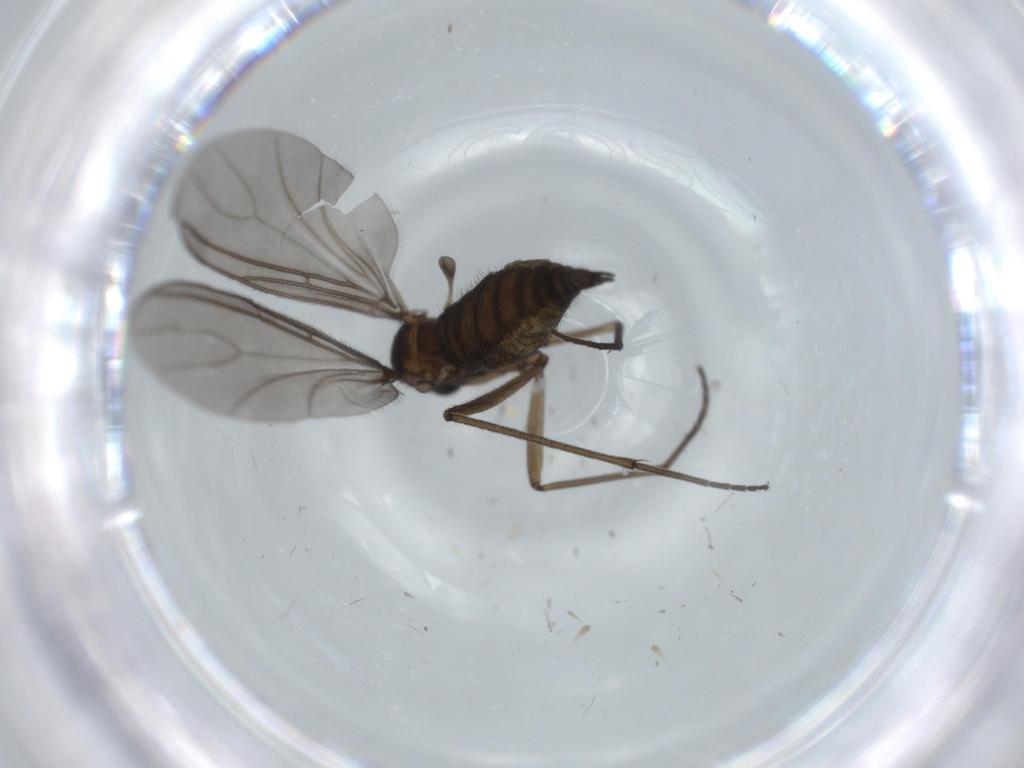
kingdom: Animalia
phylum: Arthropoda
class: Insecta
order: Diptera
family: Sciaridae
